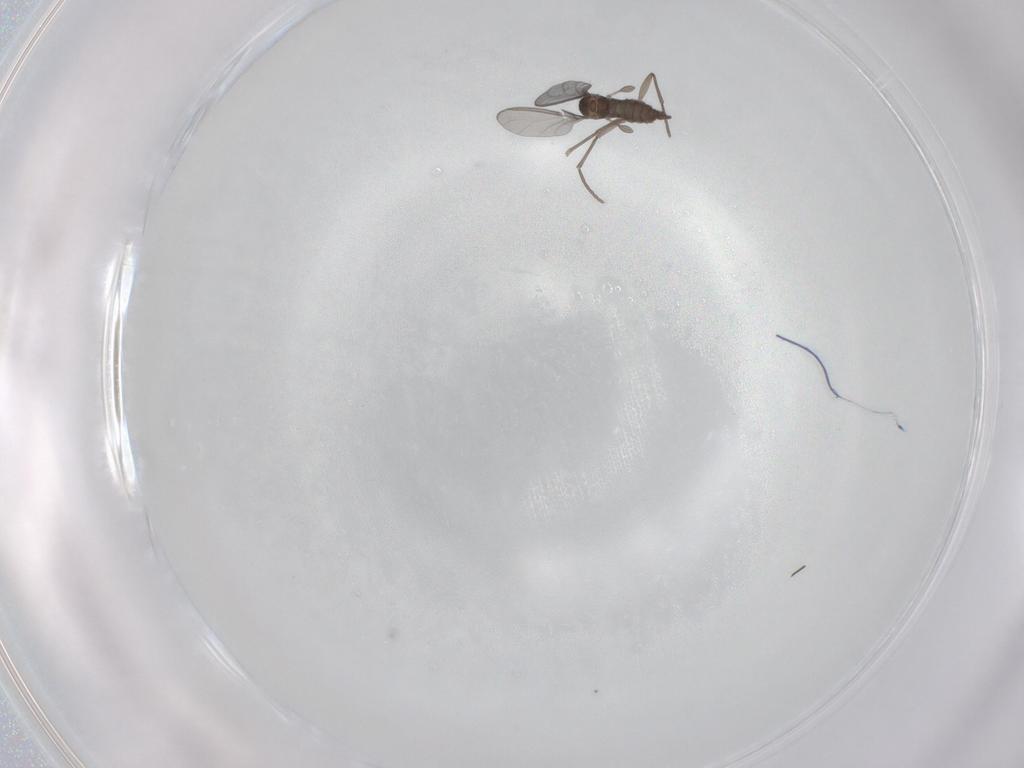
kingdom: Animalia
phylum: Arthropoda
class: Insecta
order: Diptera
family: Sciaridae
